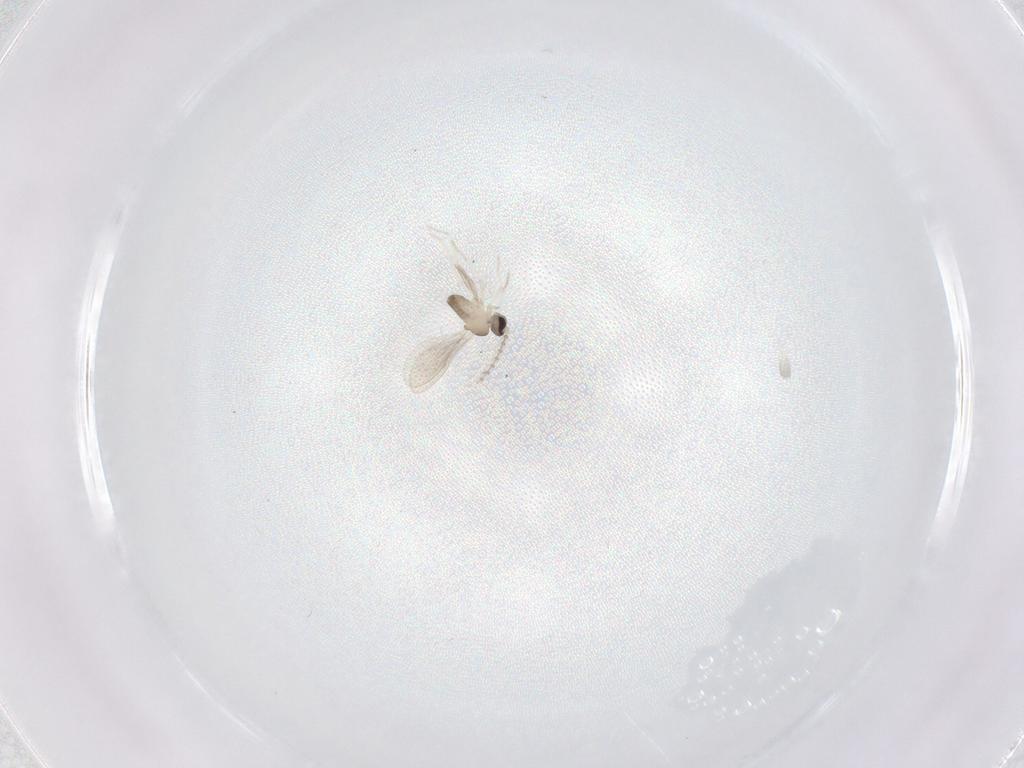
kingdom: Animalia
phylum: Arthropoda
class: Insecta
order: Diptera
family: Cecidomyiidae
